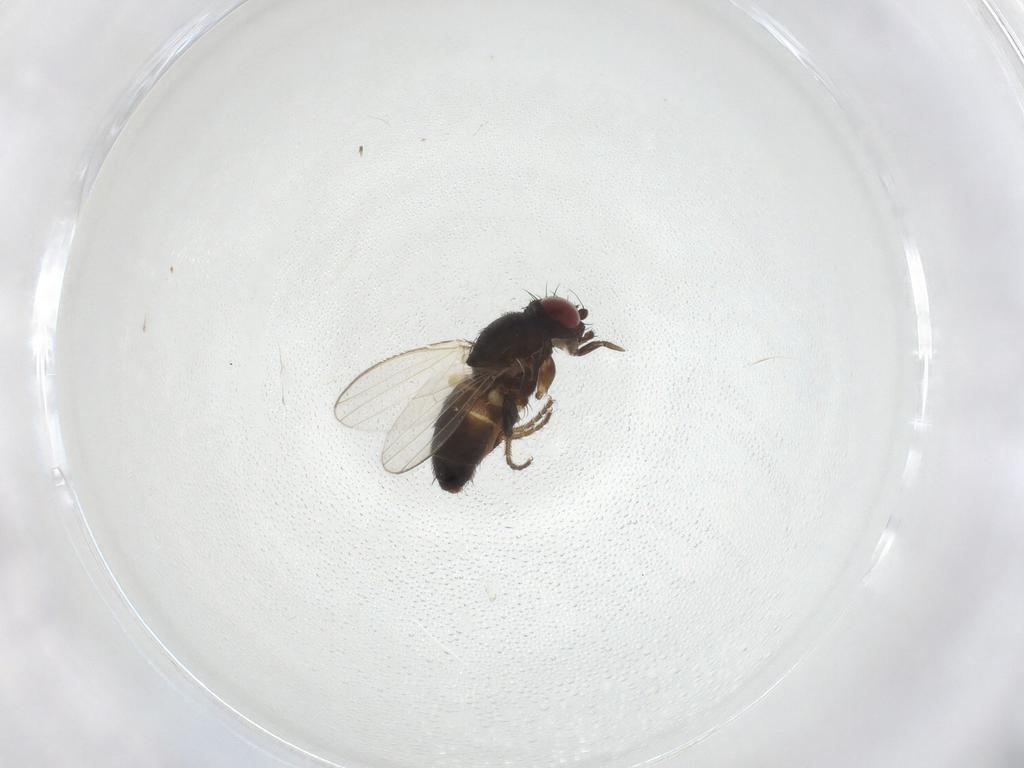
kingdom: Animalia
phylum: Arthropoda
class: Insecta
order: Diptera
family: Milichiidae
